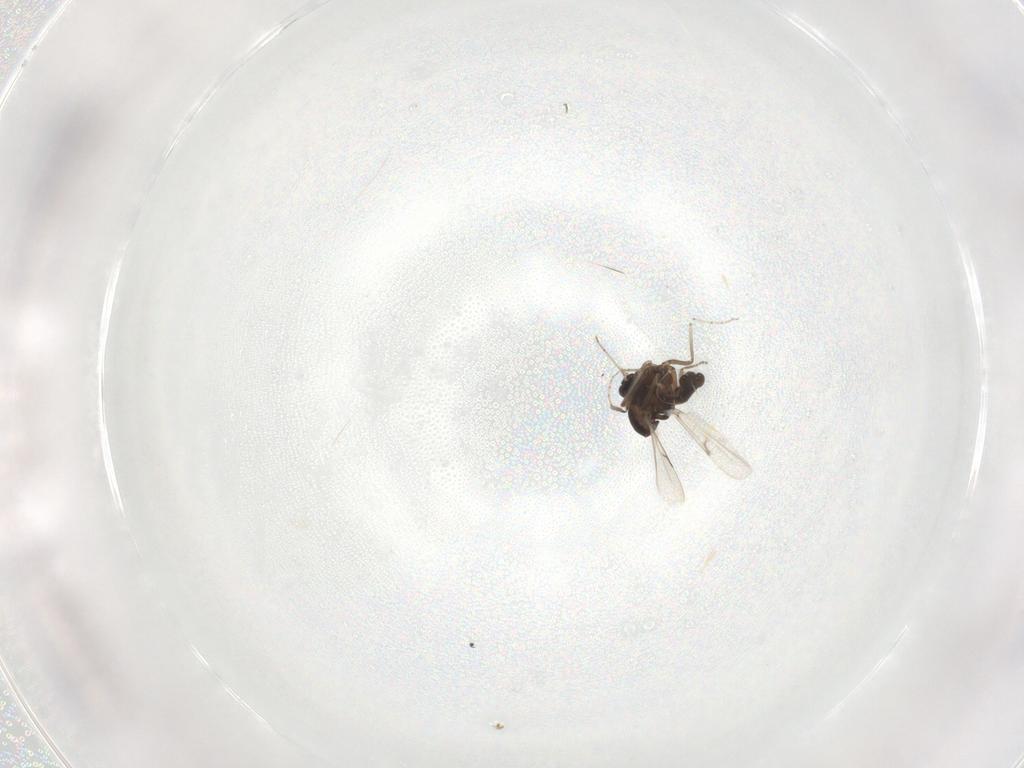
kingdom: Animalia
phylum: Arthropoda
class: Insecta
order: Diptera
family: Ceratopogonidae
